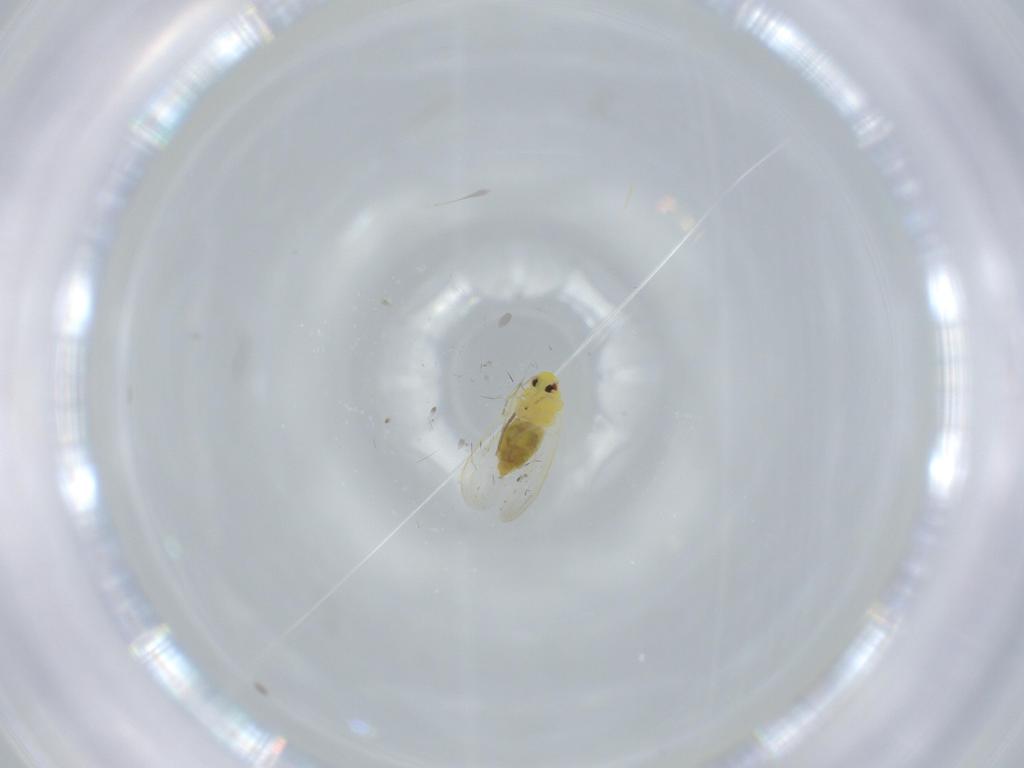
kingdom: Animalia
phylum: Arthropoda
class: Insecta
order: Hemiptera
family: Aleyrodidae
